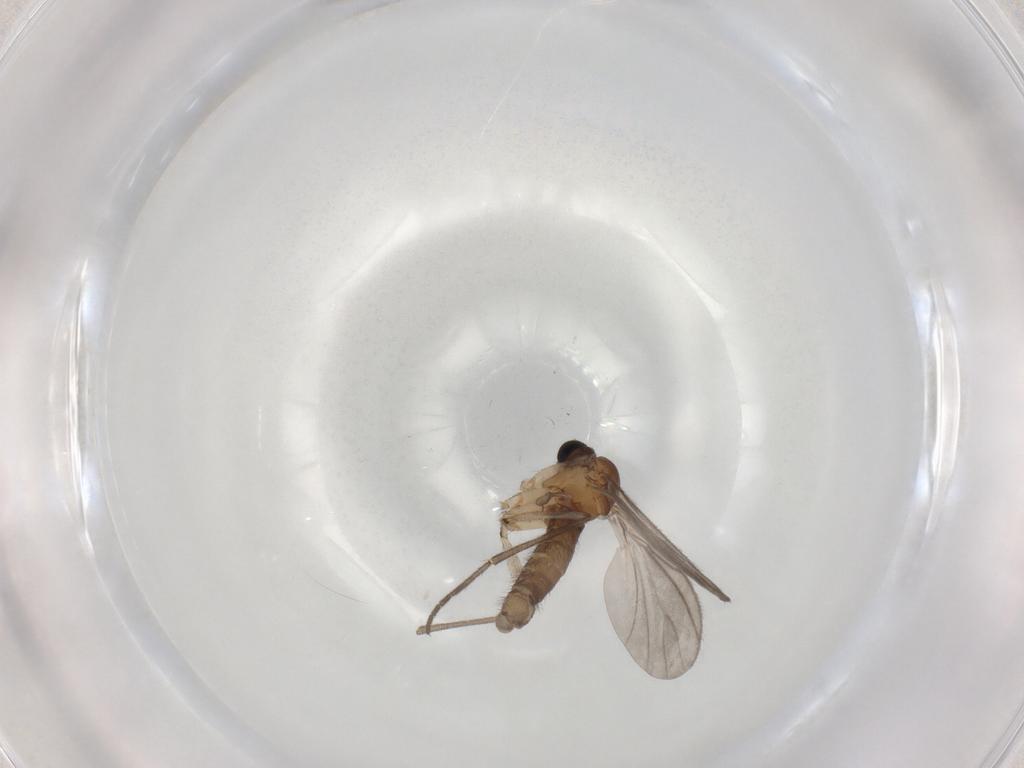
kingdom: Animalia
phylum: Arthropoda
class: Insecta
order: Diptera
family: Sciaridae
